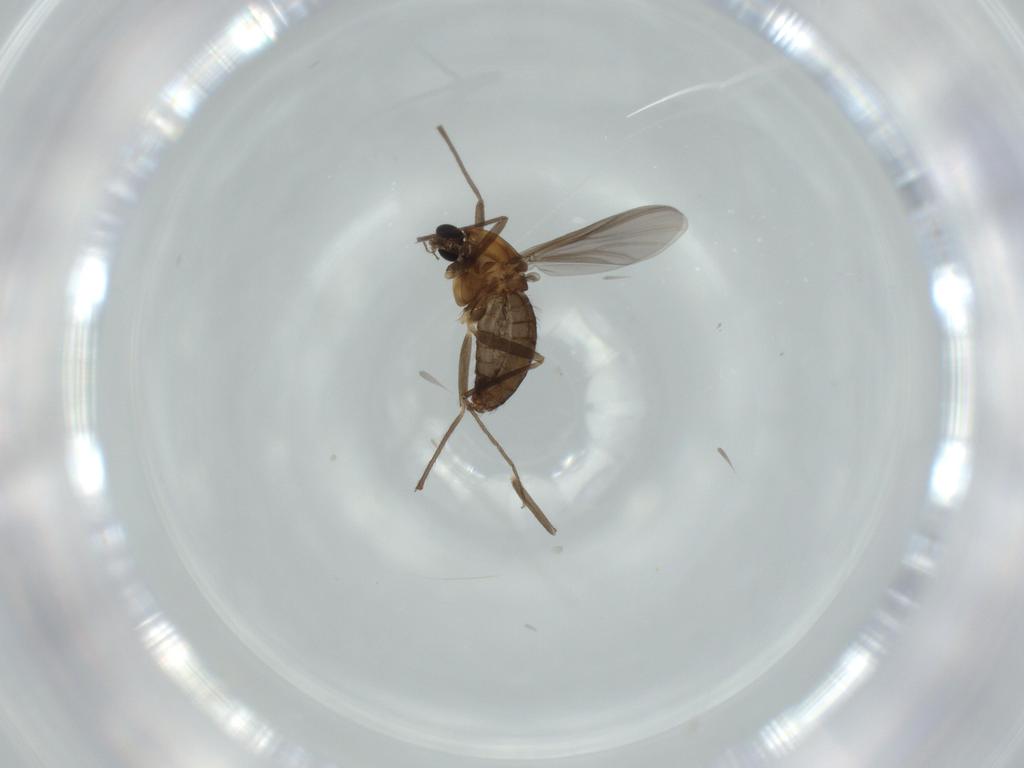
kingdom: Animalia
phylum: Arthropoda
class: Insecta
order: Diptera
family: Chironomidae
